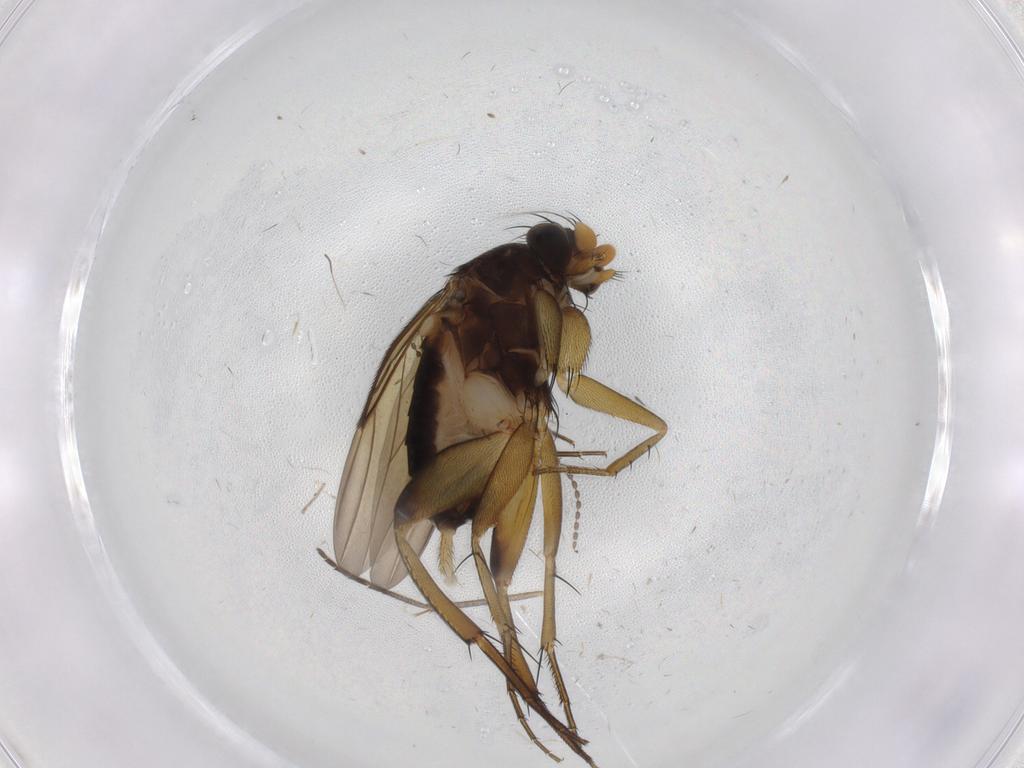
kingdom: Animalia
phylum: Arthropoda
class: Insecta
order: Diptera
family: Phoridae
